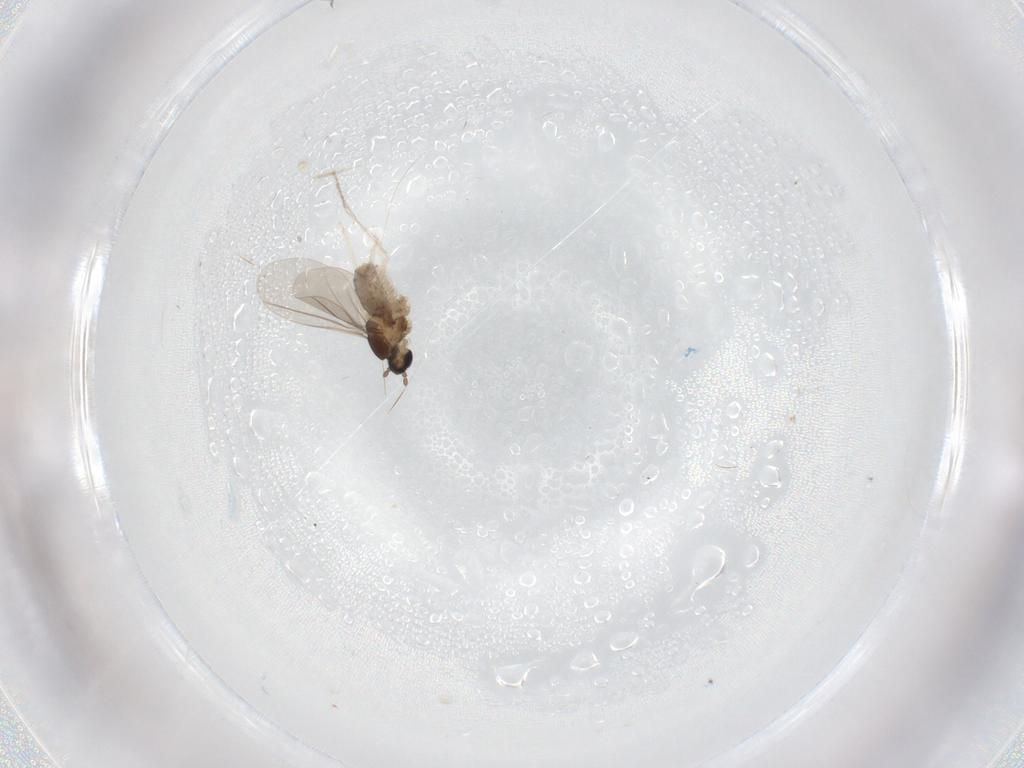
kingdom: Animalia
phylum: Arthropoda
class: Insecta
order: Diptera
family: Cecidomyiidae
